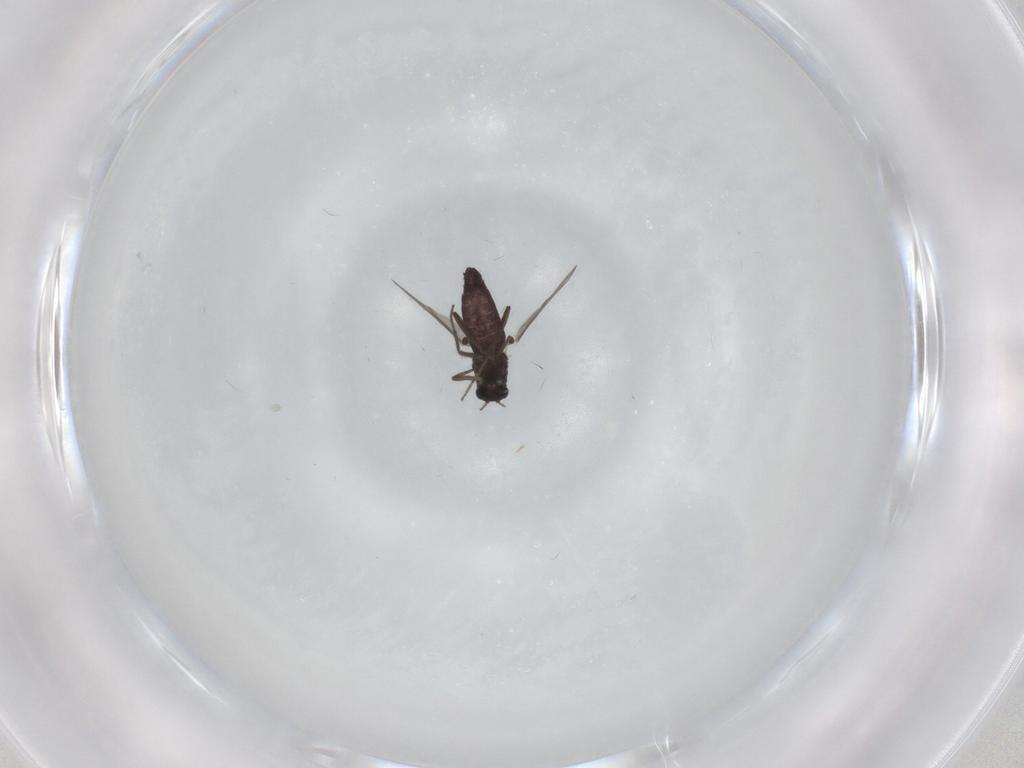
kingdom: Animalia
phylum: Arthropoda
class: Insecta
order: Diptera
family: Chironomidae
